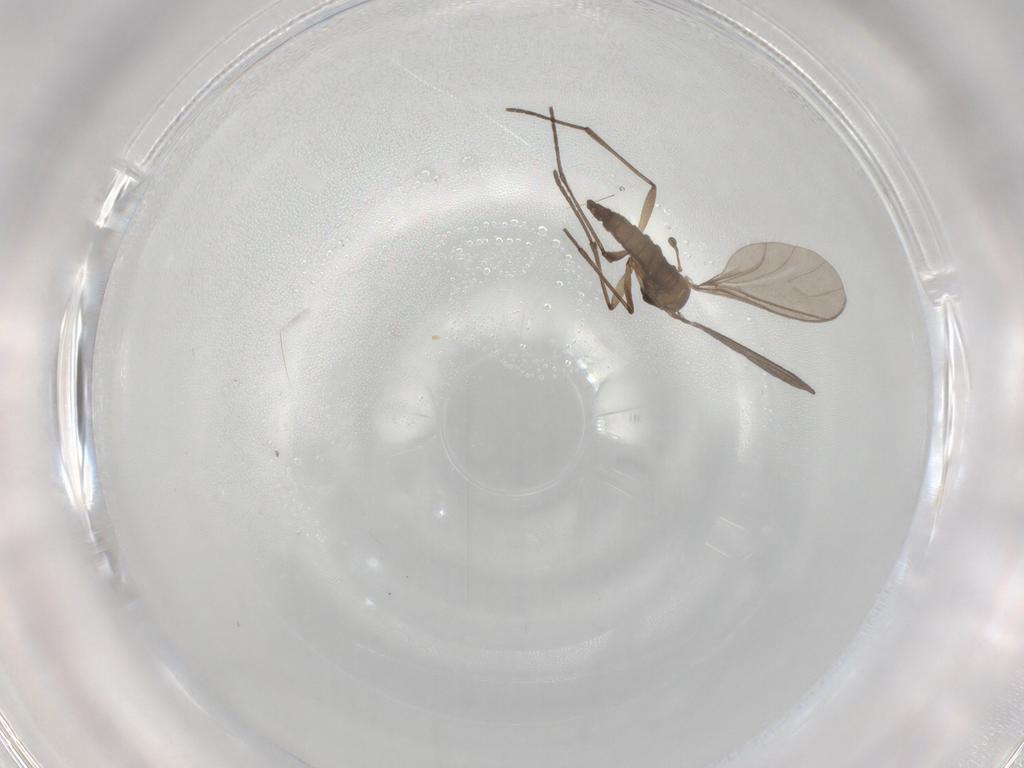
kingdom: Animalia
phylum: Arthropoda
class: Insecta
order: Diptera
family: Sciaridae
